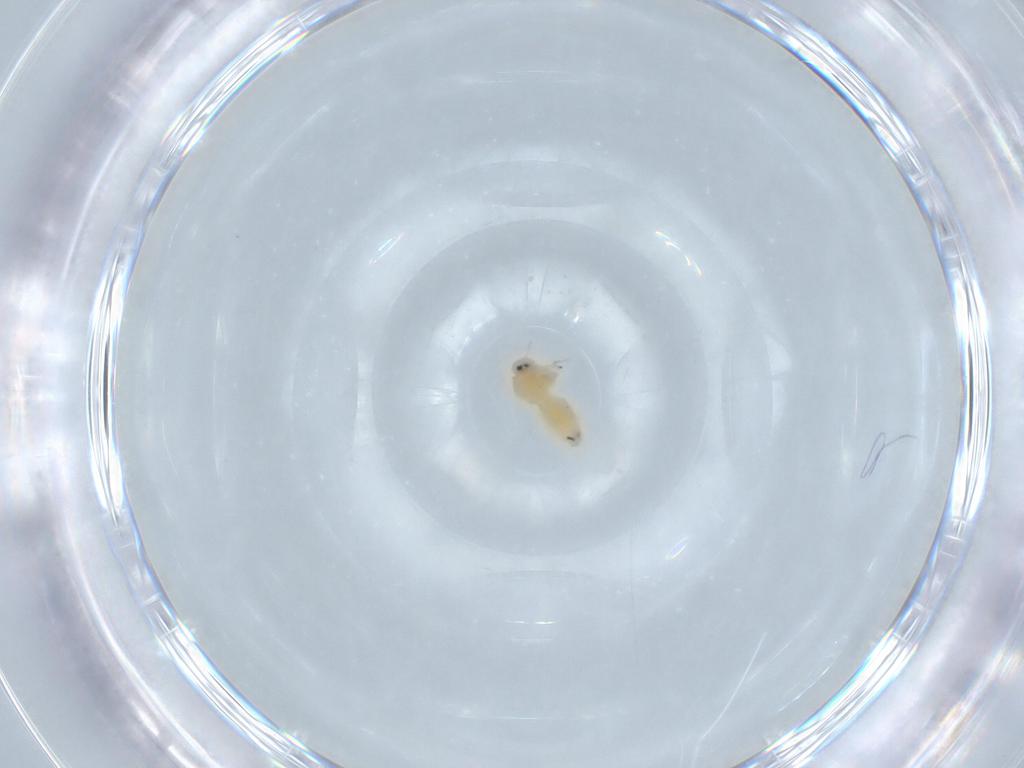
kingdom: Animalia
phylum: Arthropoda
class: Insecta
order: Hemiptera
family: Aleyrodidae
